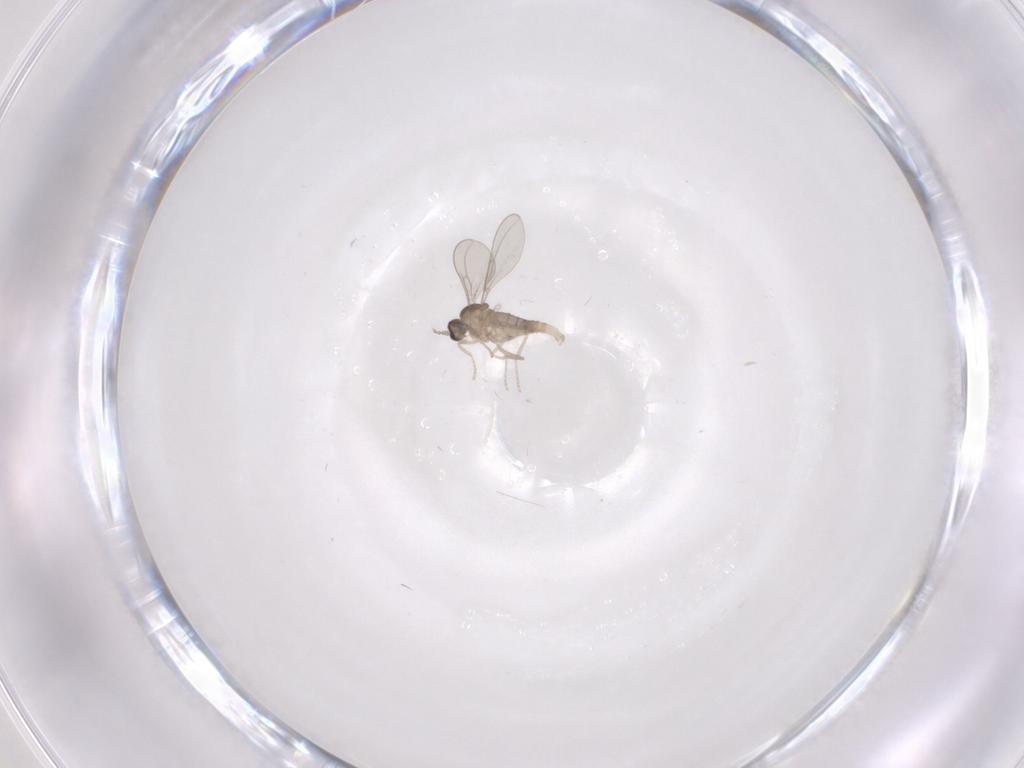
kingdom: Animalia
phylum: Arthropoda
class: Insecta
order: Diptera
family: Cecidomyiidae
